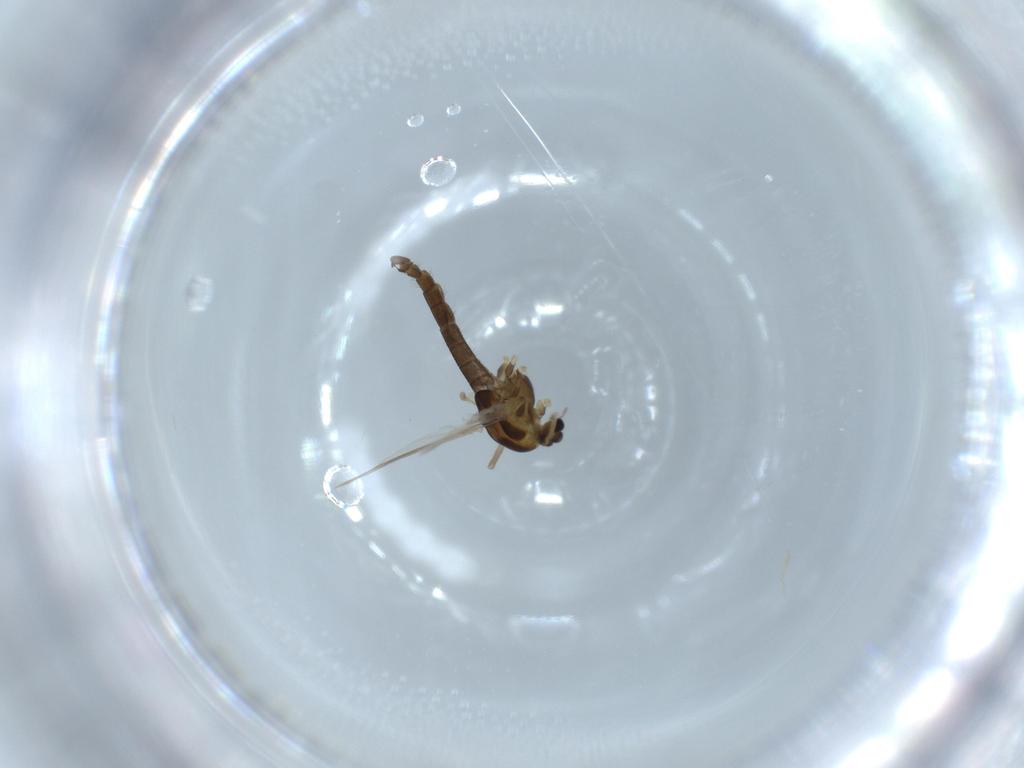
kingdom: Animalia
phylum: Arthropoda
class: Insecta
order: Diptera
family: Chironomidae
